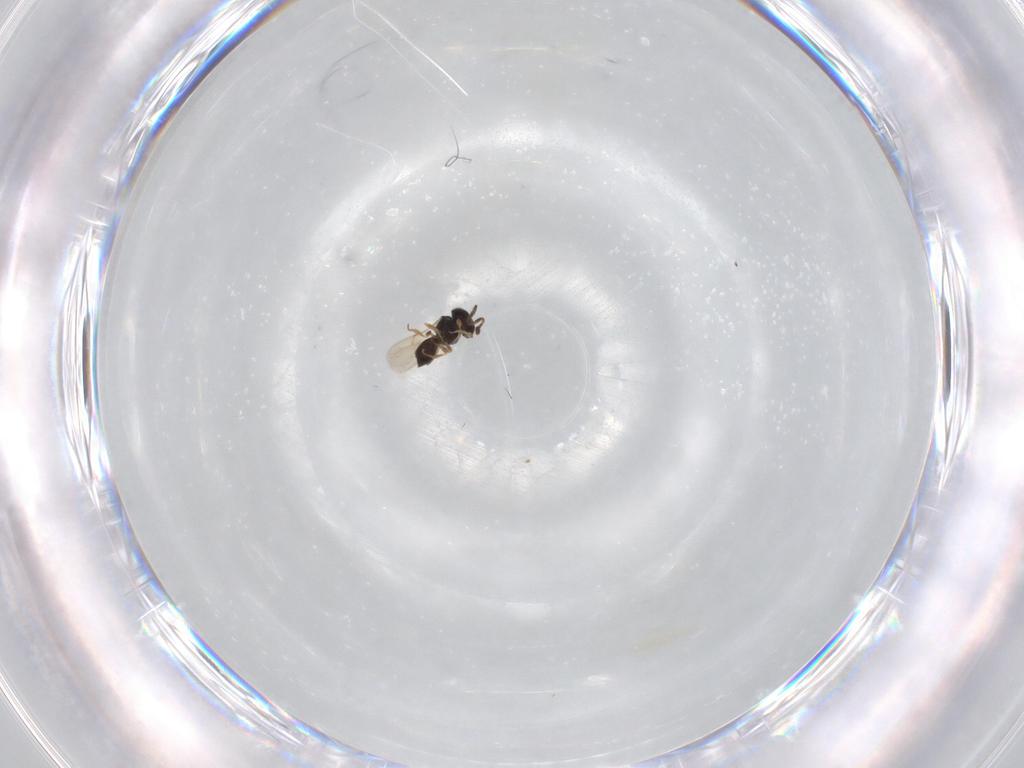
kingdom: Animalia
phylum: Arthropoda
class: Insecta
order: Hymenoptera
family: Scelionidae
